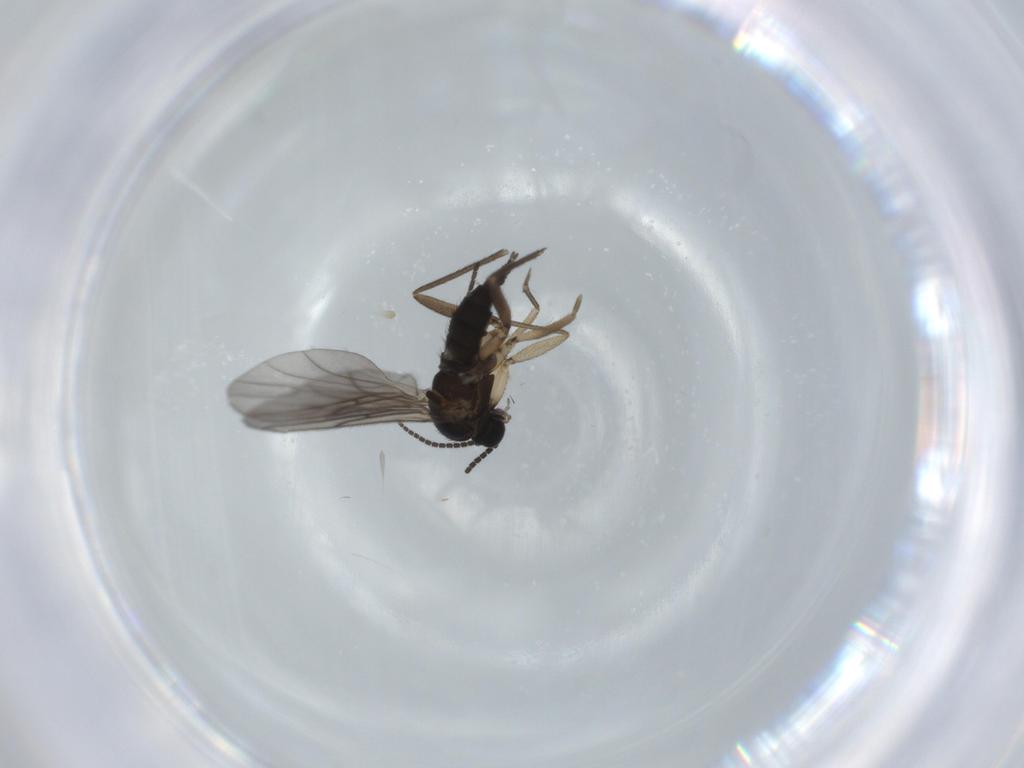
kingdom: Animalia
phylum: Arthropoda
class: Insecta
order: Diptera
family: Sciaridae
